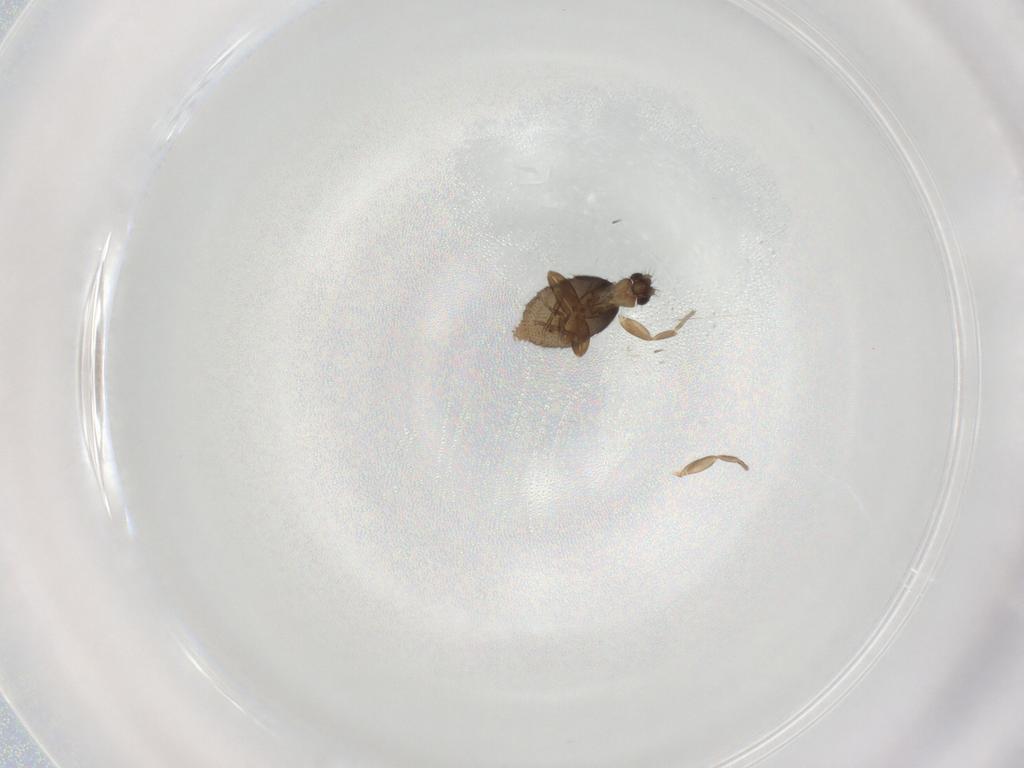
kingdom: Animalia
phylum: Arthropoda
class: Insecta
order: Diptera
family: Phoridae
